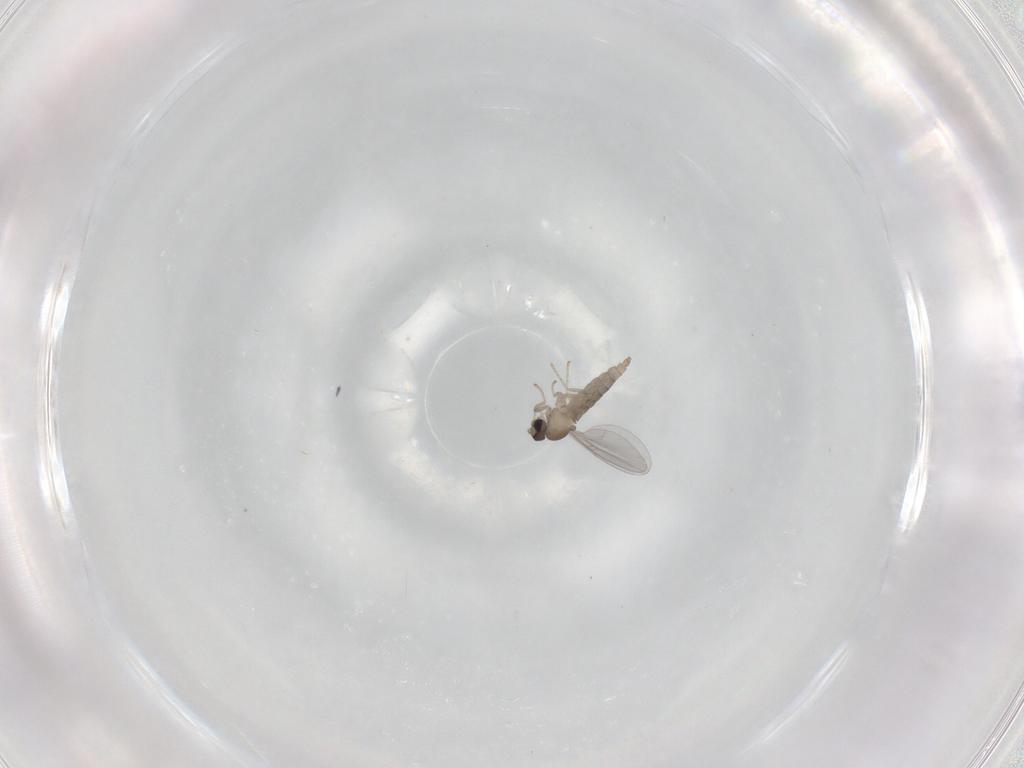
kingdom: Animalia
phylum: Arthropoda
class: Insecta
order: Diptera
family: Cecidomyiidae
